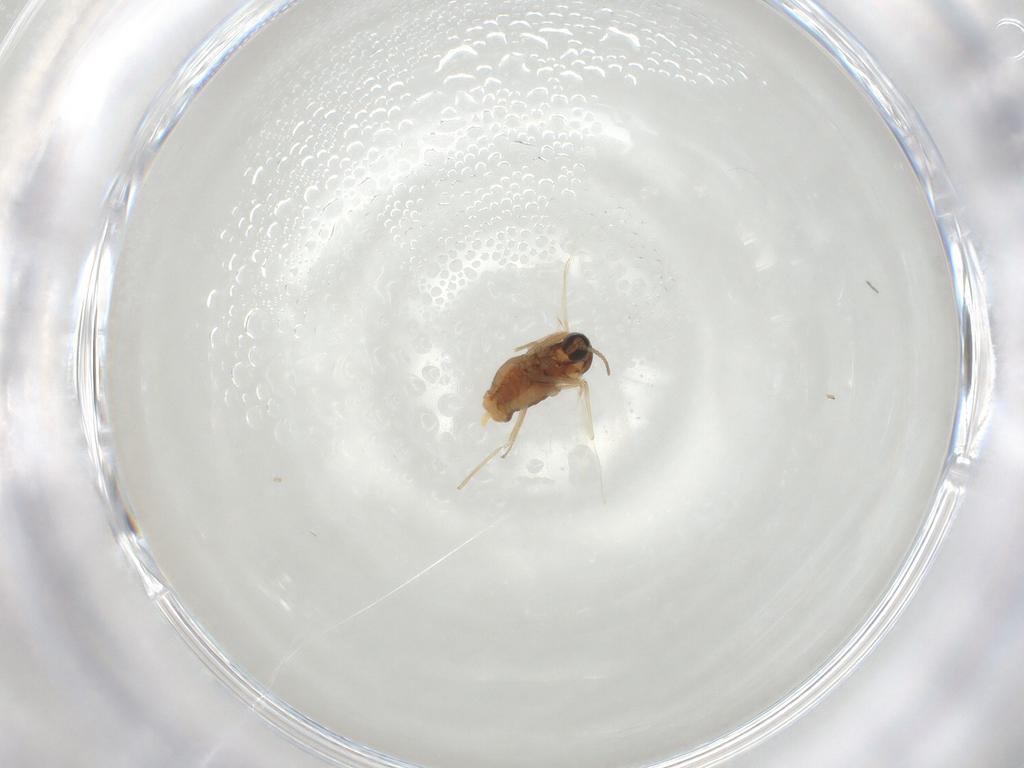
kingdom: Animalia
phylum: Arthropoda
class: Insecta
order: Diptera
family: Cecidomyiidae
